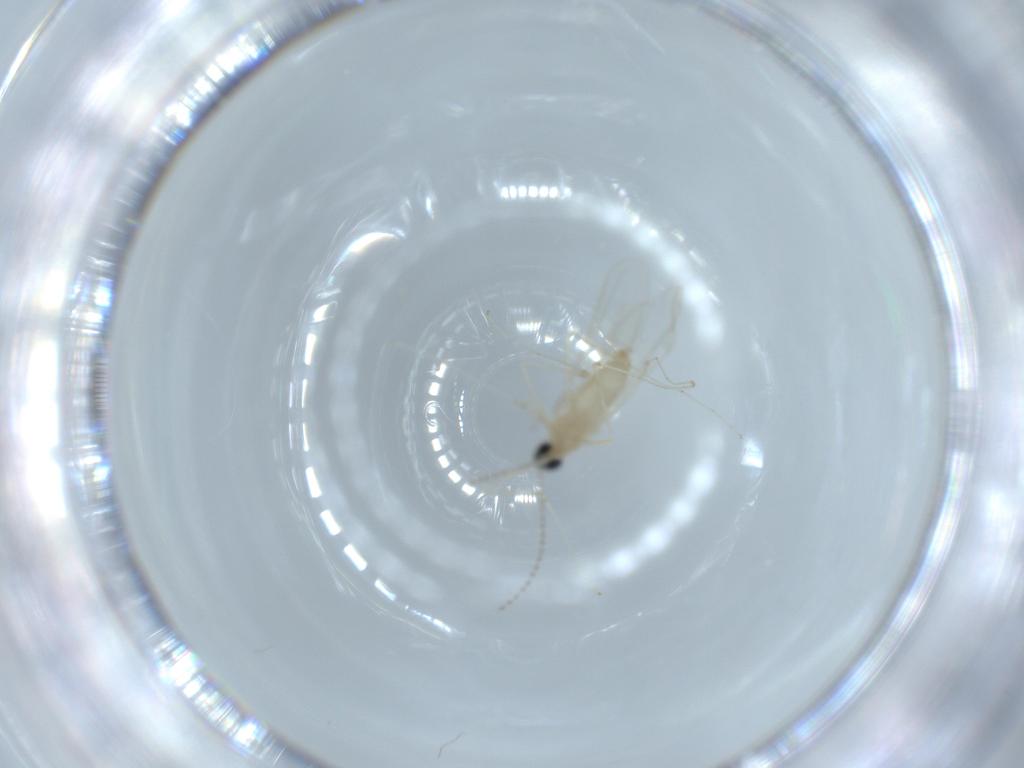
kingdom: Animalia
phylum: Arthropoda
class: Insecta
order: Diptera
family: Cecidomyiidae
